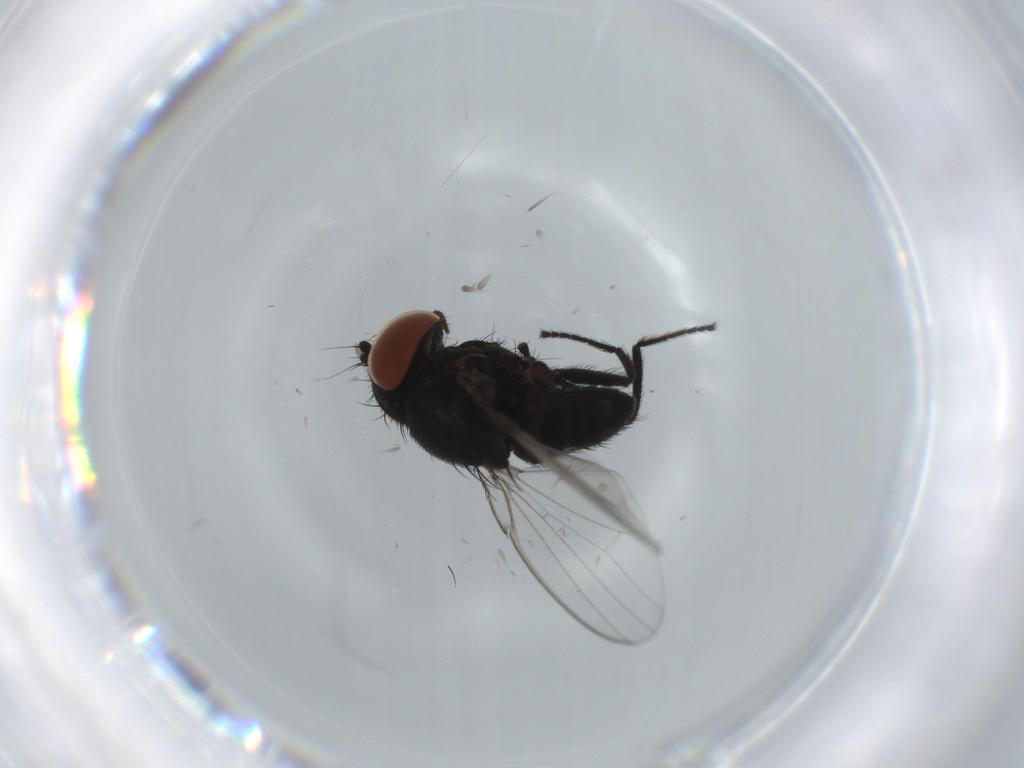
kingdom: Animalia
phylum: Arthropoda
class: Insecta
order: Diptera
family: Milichiidae
